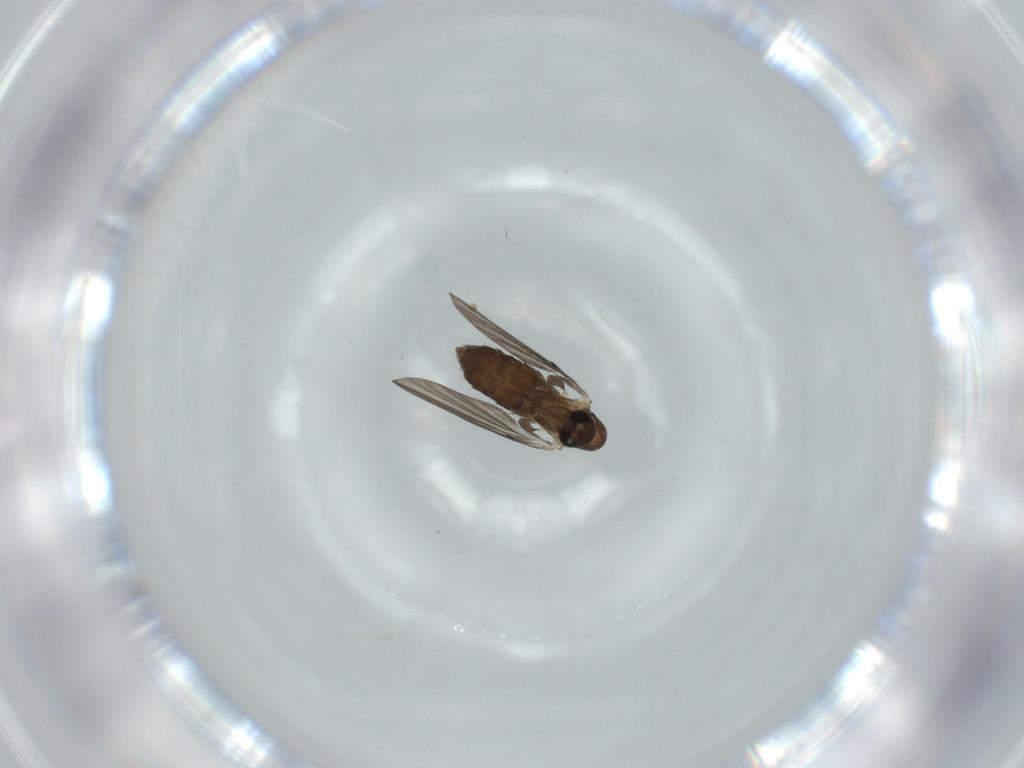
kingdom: Animalia
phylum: Arthropoda
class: Insecta
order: Diptera
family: Psychodidae
